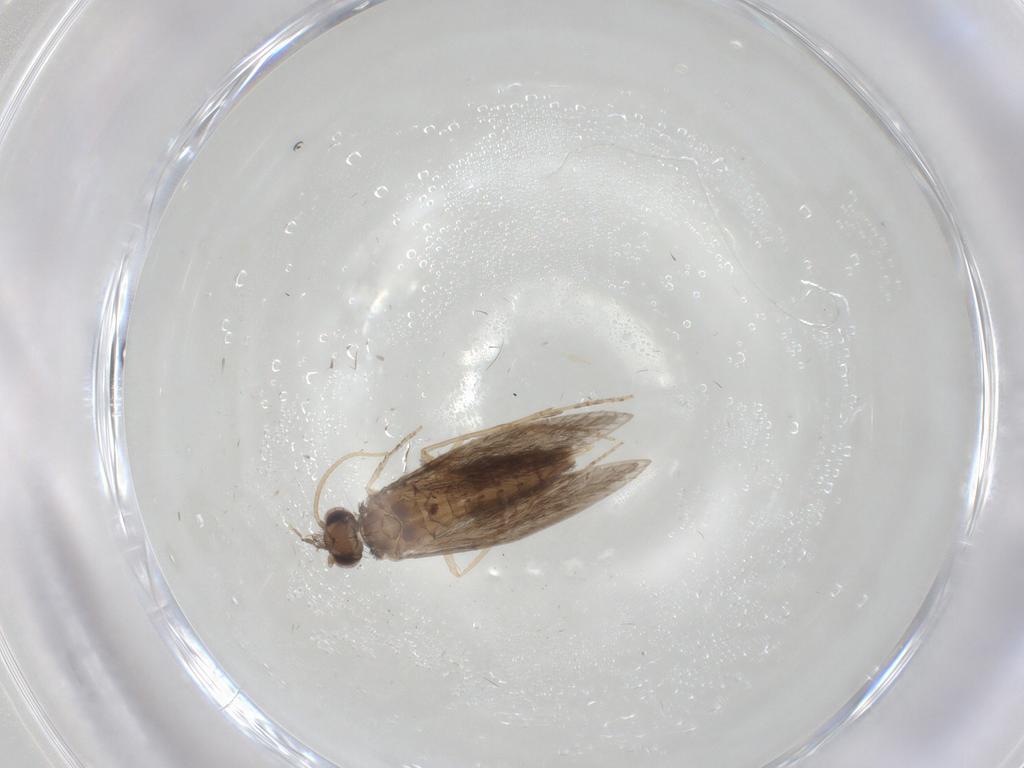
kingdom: Animalia
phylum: Arthropoda
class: Insecta
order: Trichoptera
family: Hydroptilidae
